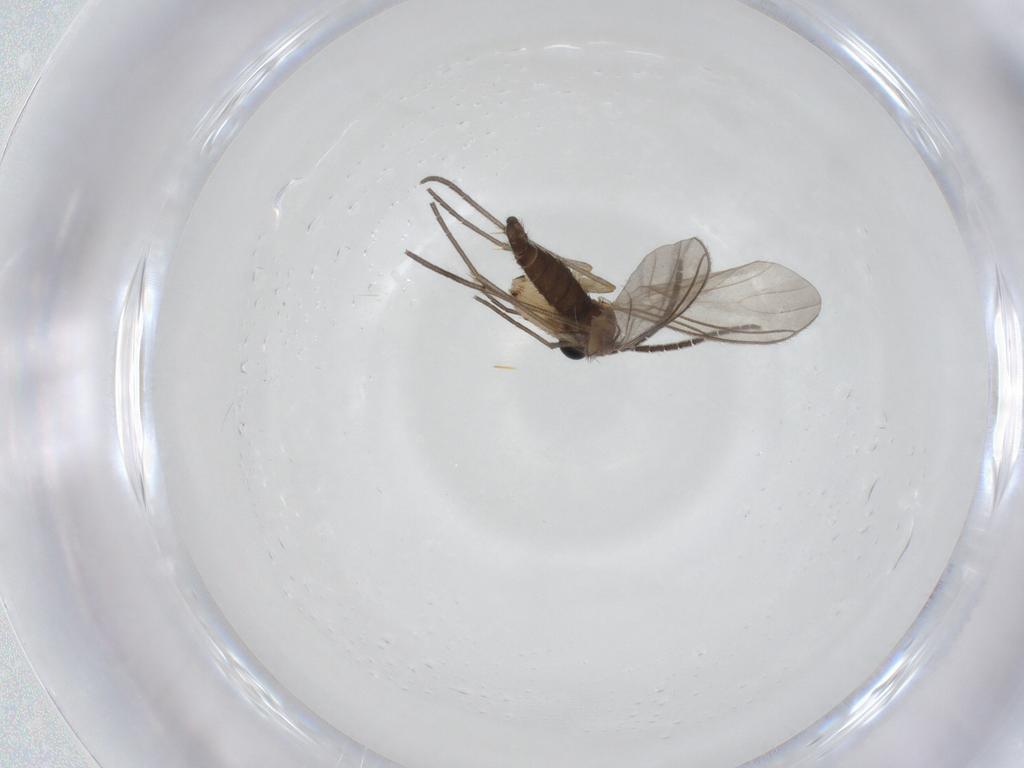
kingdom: Animalia
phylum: Arthropoda
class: Insecta
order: Diptera
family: Sciaridae
